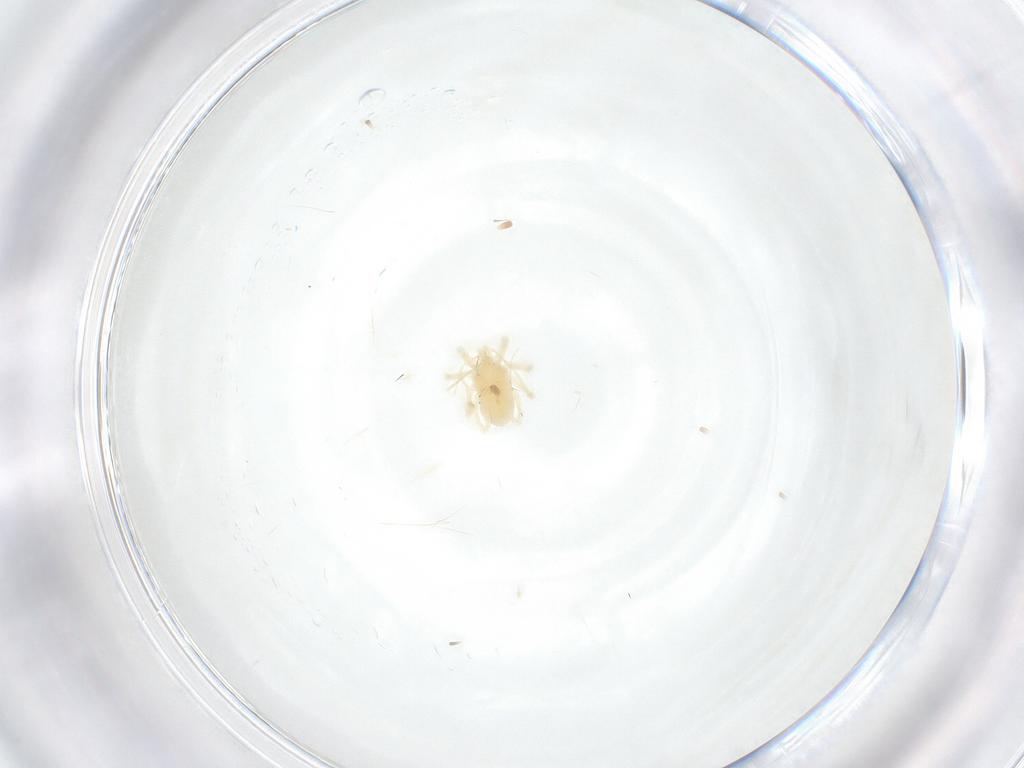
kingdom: Animalia
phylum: Arthropoda
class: Arachnida
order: Trombidiformes
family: Anystidae
